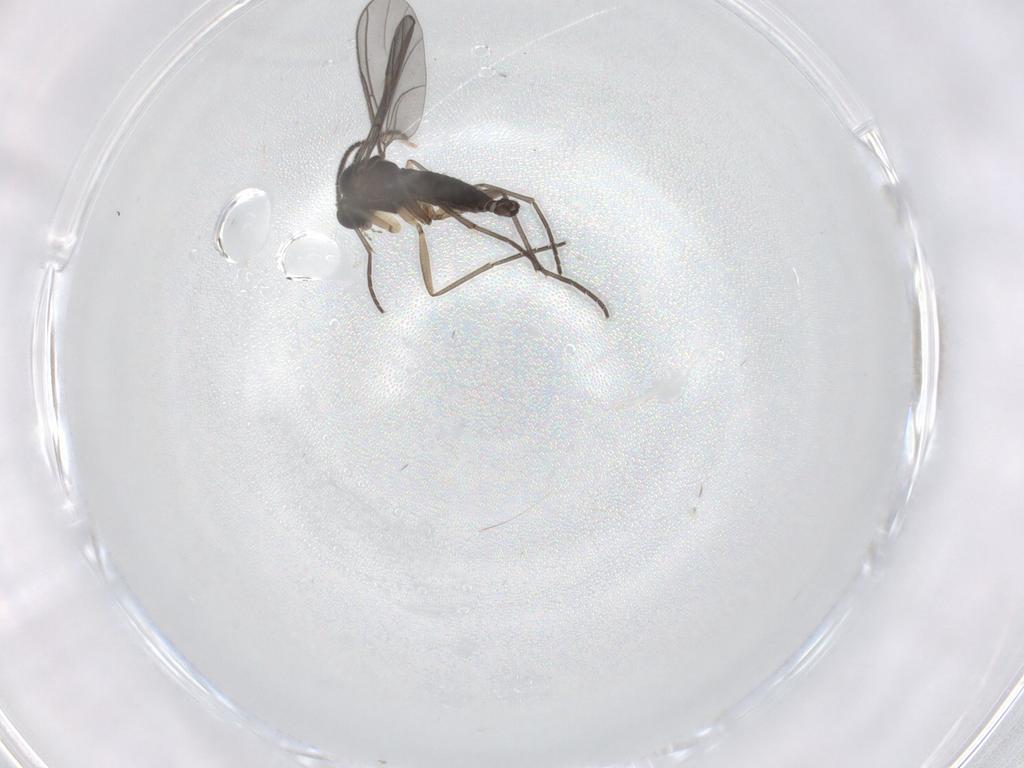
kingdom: Animalia
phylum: Arthropoda
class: Insecta
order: Diptera
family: Sciaridae
